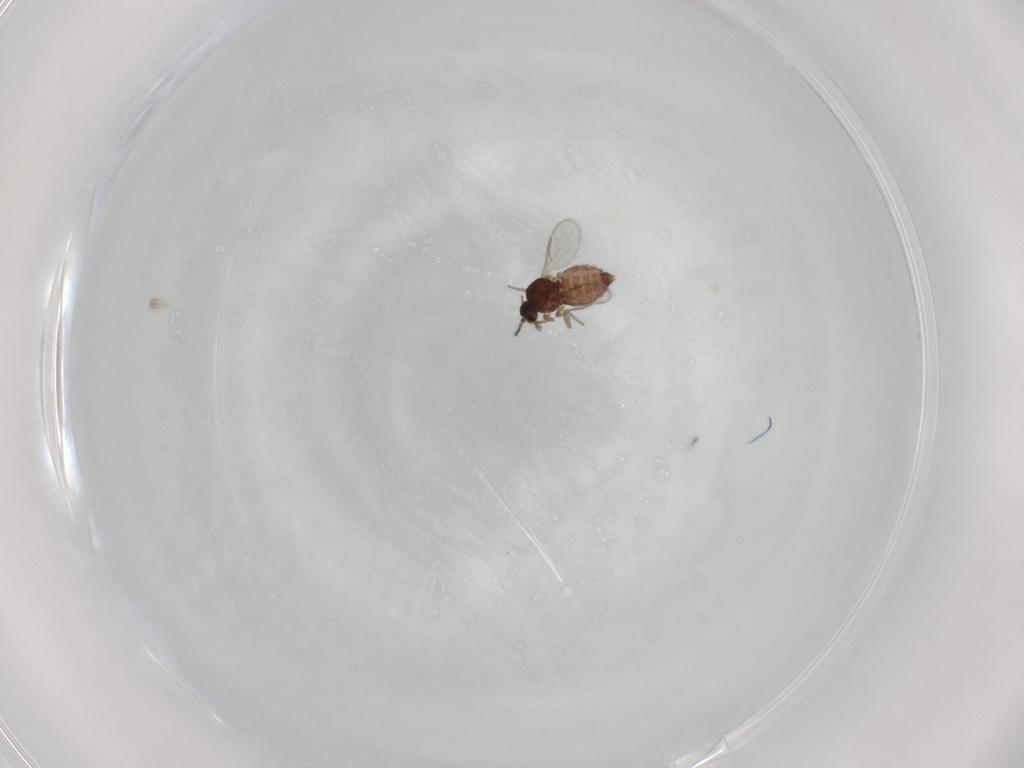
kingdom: Animalia
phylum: Arthropoda
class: Insecta
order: Diptera
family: Ceratopogonidae
